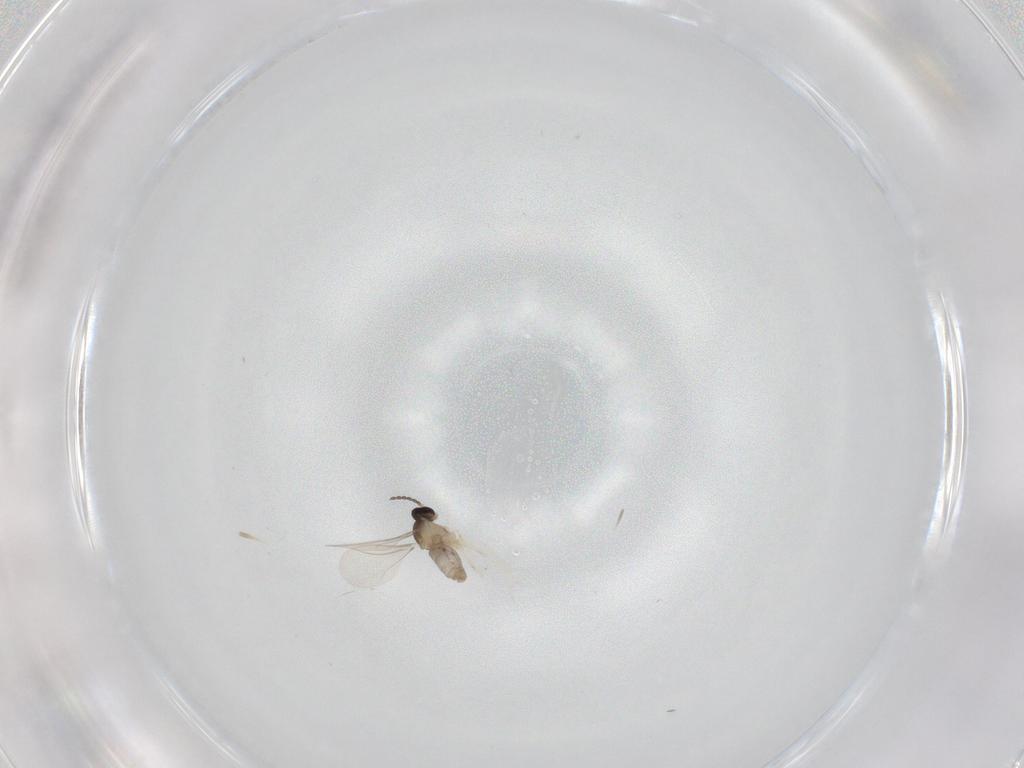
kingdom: Animalia
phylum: Arthropoda
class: Insecta
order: Diptera
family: Cecidomyiidae
